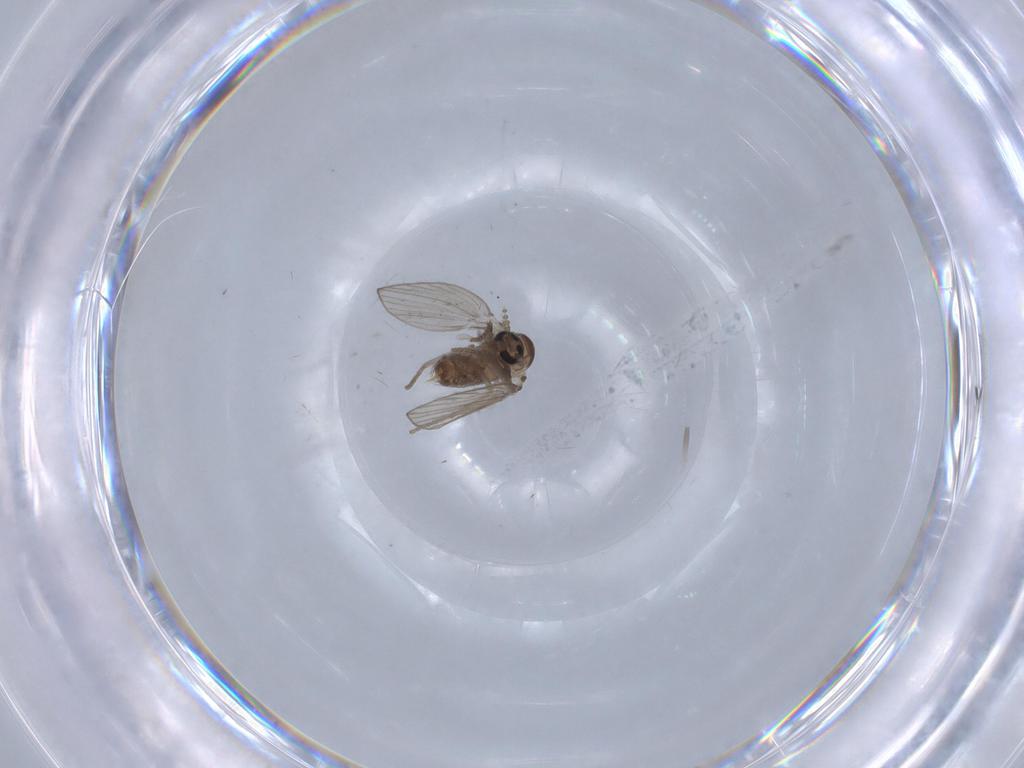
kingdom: Animalia
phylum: Arthropoda
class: Insecta
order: Diptera
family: Psychodidae
